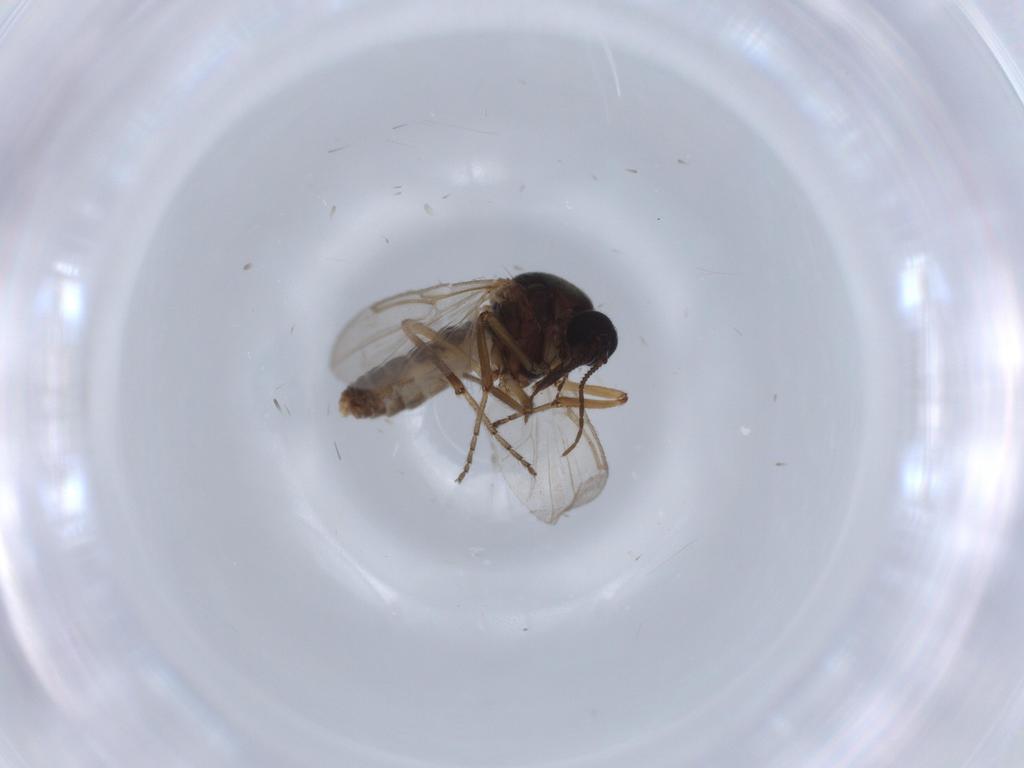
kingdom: Animalia
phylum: Arthropoda
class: Insecta
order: Diptera
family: Ceratopogonidae
